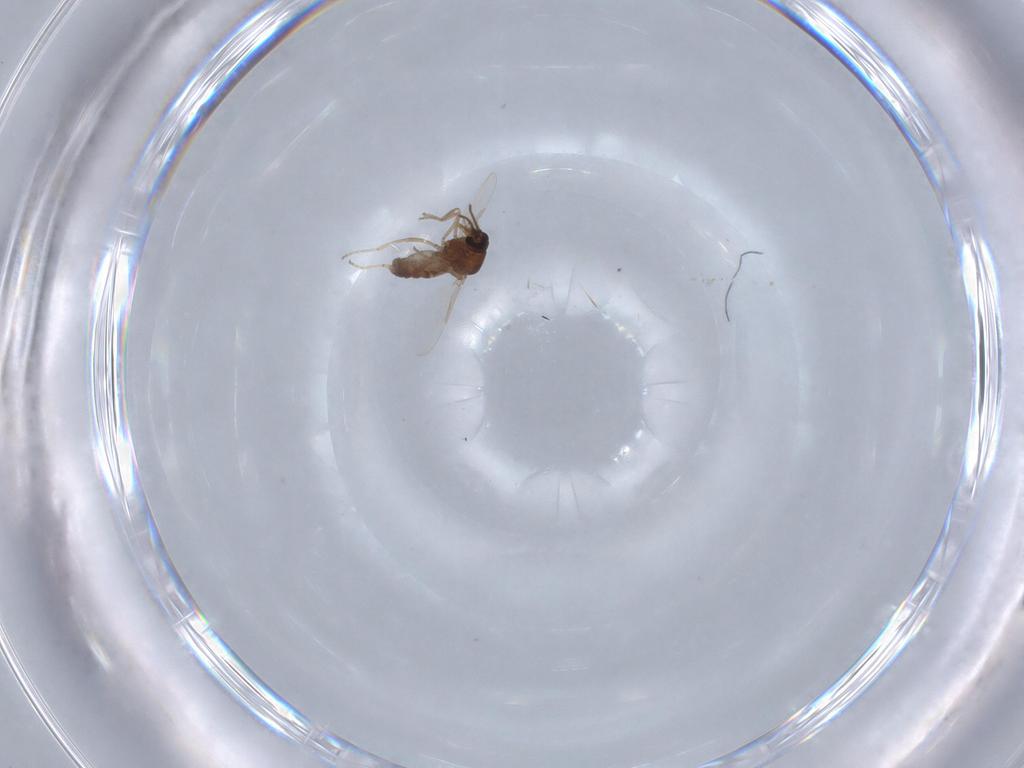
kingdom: Animalia
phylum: Arthropoda
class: Insecta
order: Diptera
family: Ceratopogonidae
